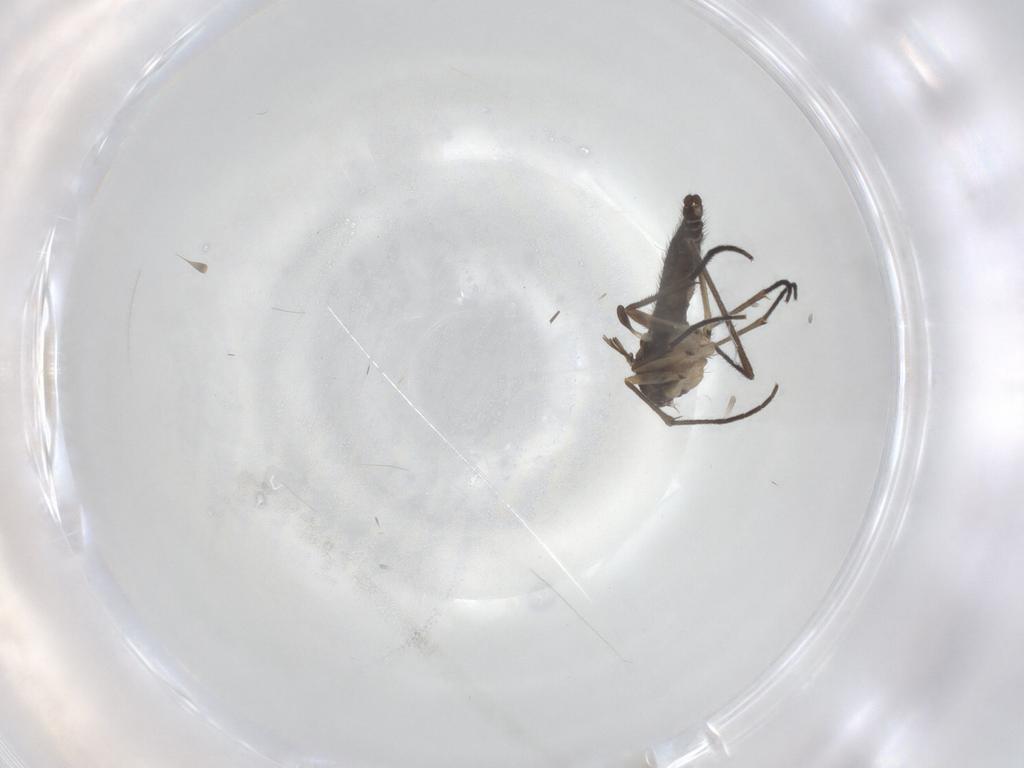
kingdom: Animalia
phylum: Arthropoda
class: Insecta
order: Diptera
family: Sciaridae
